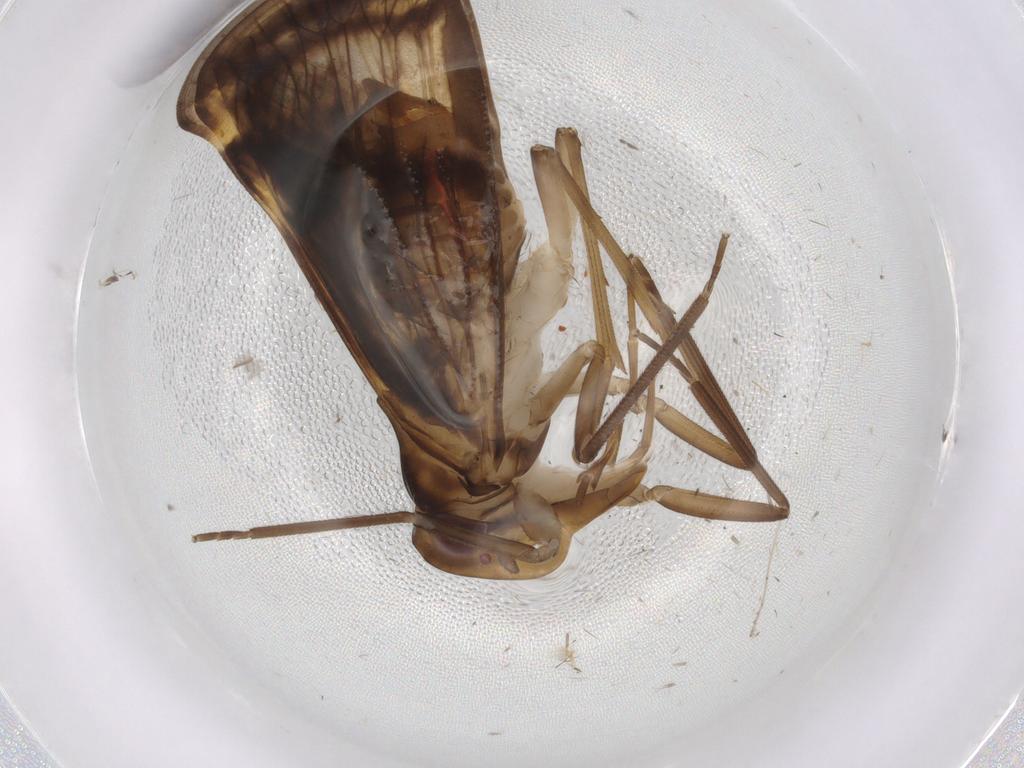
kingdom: Animalia
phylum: Arthropoda
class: Insecta
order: Hemiptera
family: Cixiidae
